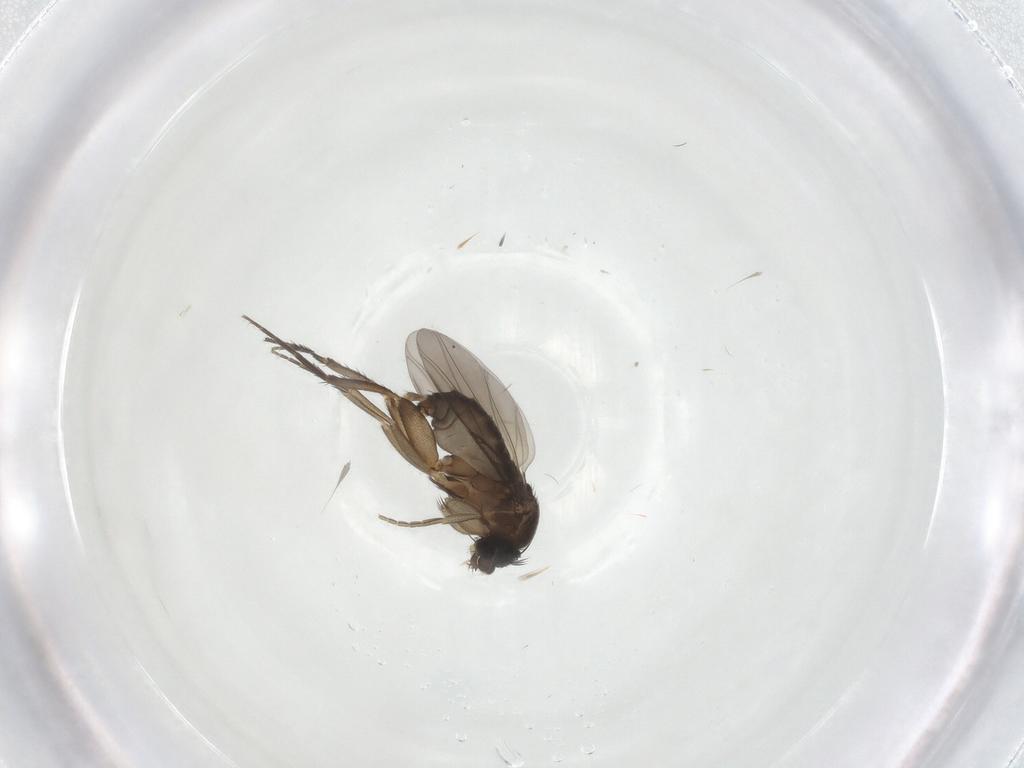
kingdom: Animalia
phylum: Arthropoda
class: Insecta
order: Diptera
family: Phoridae
